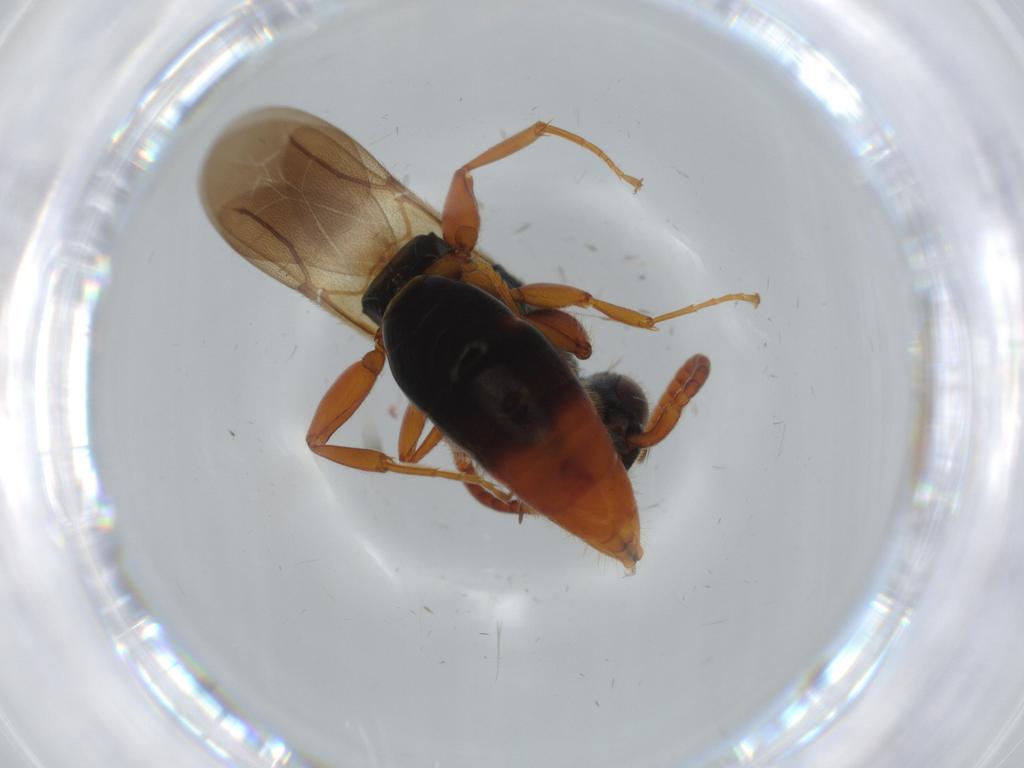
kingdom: Animalia
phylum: Arthropoda
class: Insecta
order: Hymenoptera
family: Bethylidae
